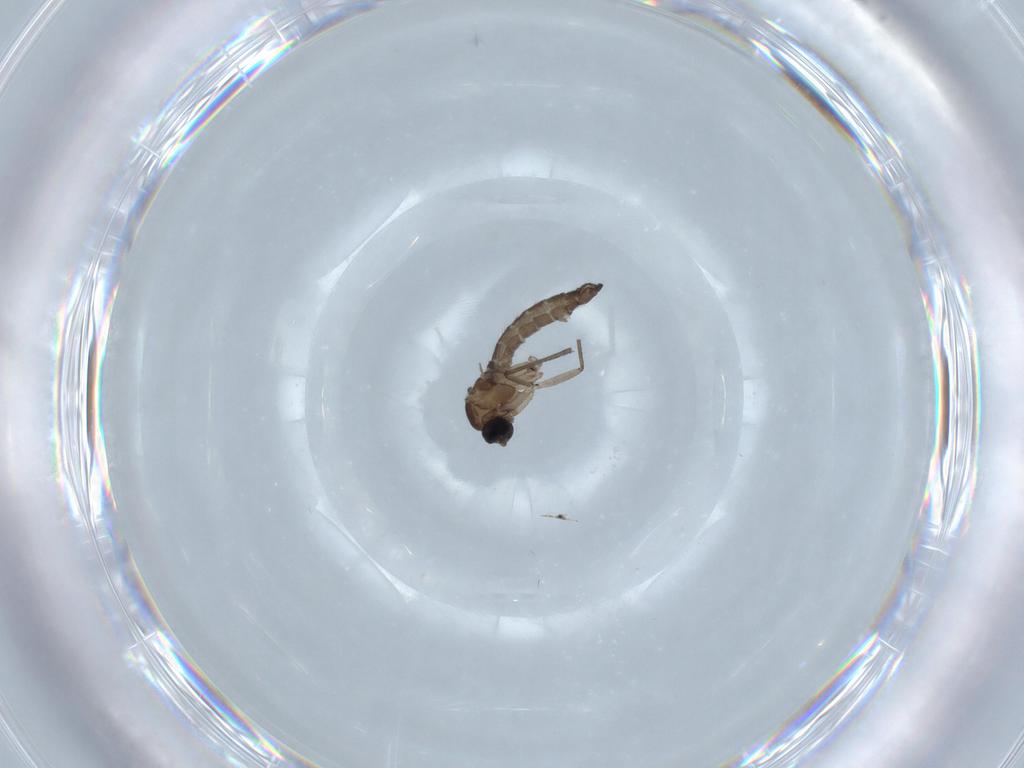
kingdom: Animalia
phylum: Arthropoda
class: Insecta
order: Diptera
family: Sciaridae
